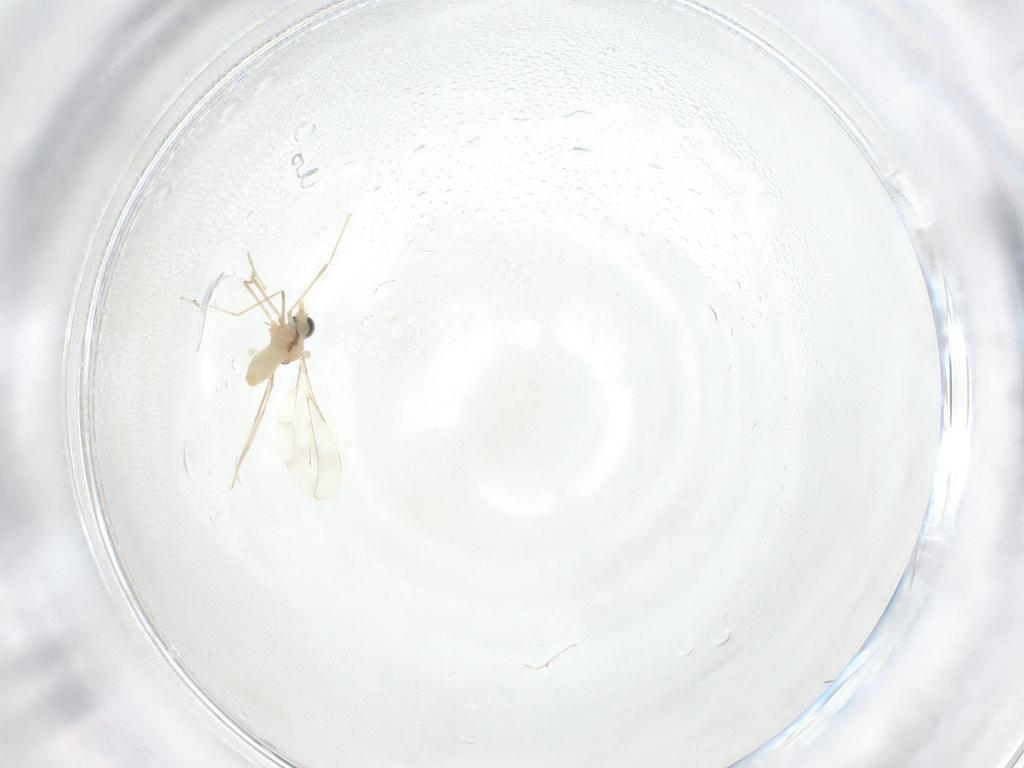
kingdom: Animalia
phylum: Arthropoda
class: Insecta
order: Diptera
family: Cecidomyiidae
